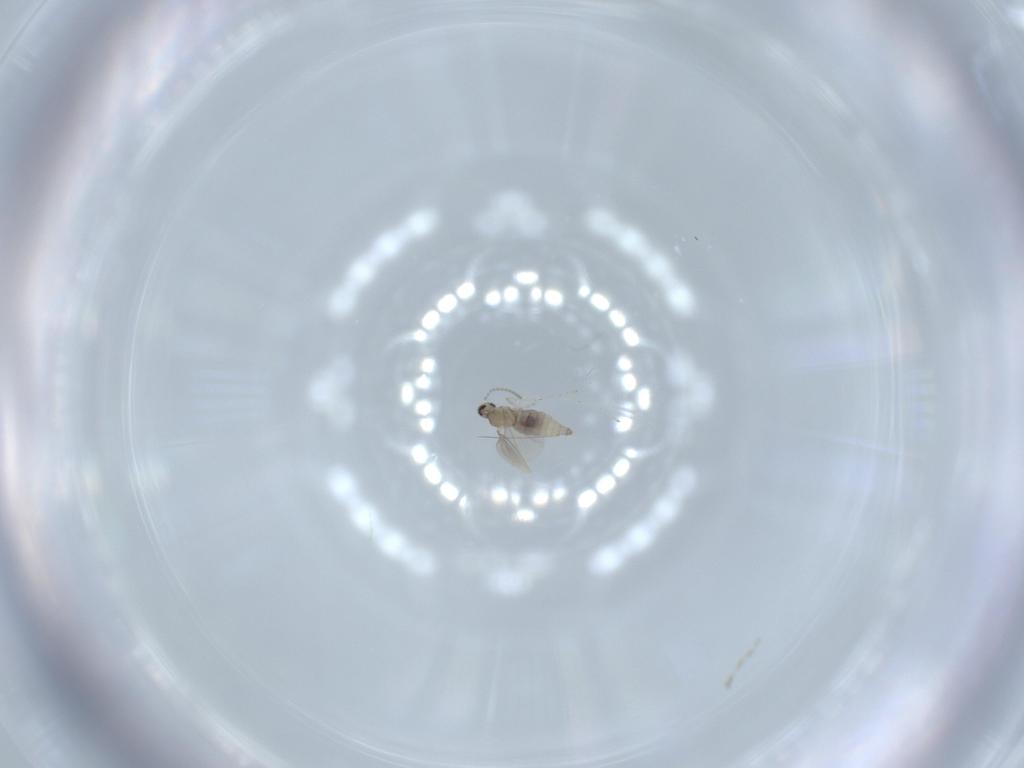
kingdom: Animalia
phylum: Arthropoda
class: Insecta
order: Diptera
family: Cecidomyiidae
